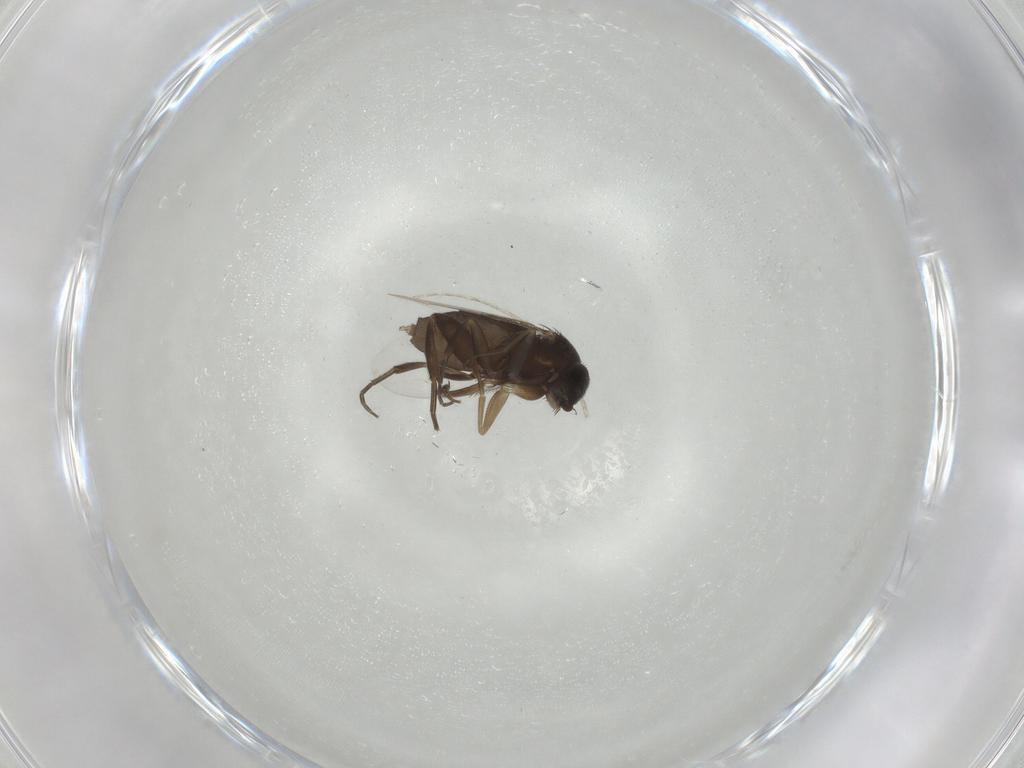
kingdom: Animalia
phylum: Arthropoda
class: Insecta
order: Diptera
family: Phoridae
